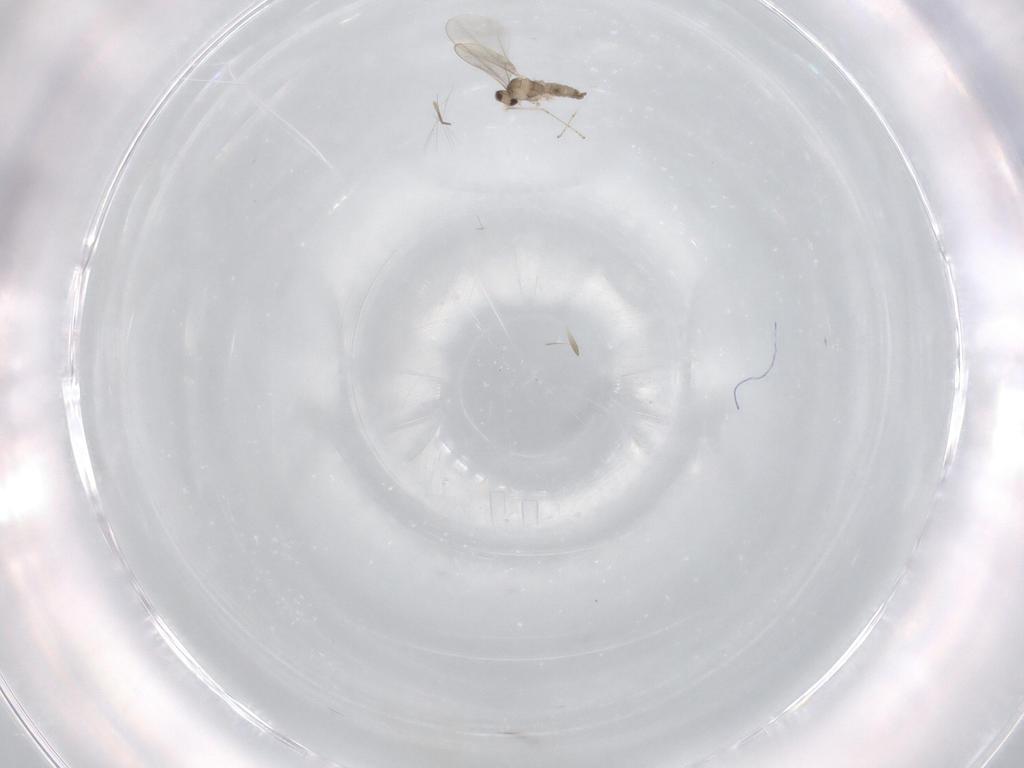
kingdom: Animalia
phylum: Arthropoda
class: Insecta
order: Diptera
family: Cecidomyiidae
